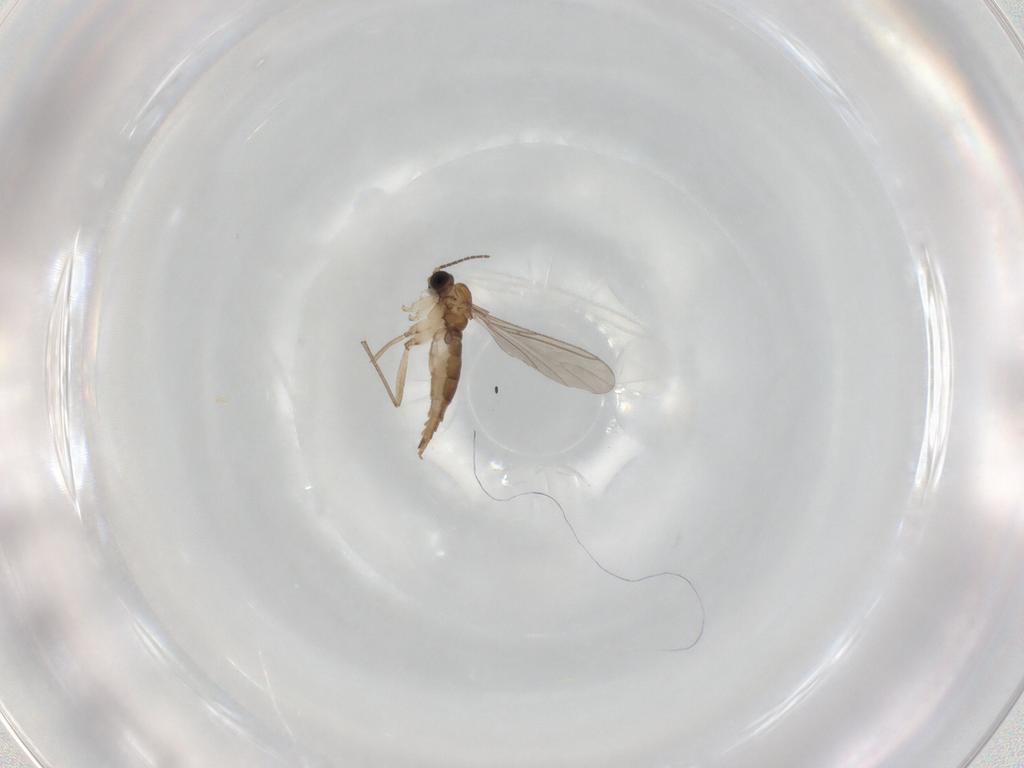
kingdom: Animalia
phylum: Arthropoda
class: Insecta
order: Diptera
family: Sciaridae
